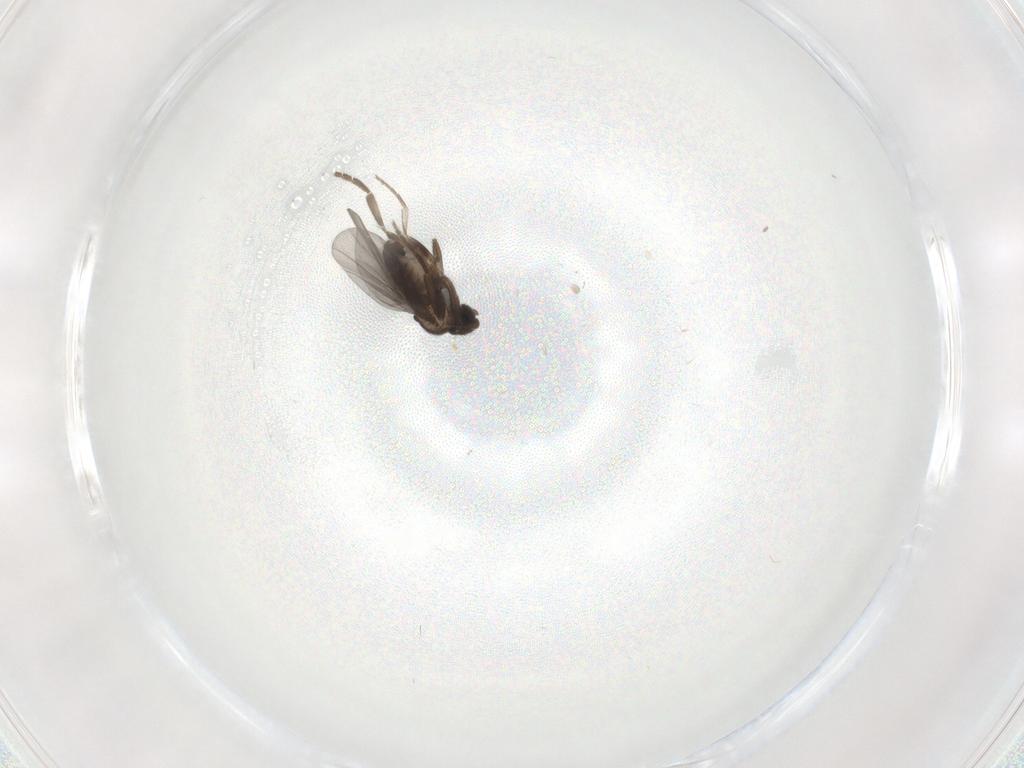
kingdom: Animalia
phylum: Arthropoda
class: Insecta
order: Diptera
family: Phoridae
